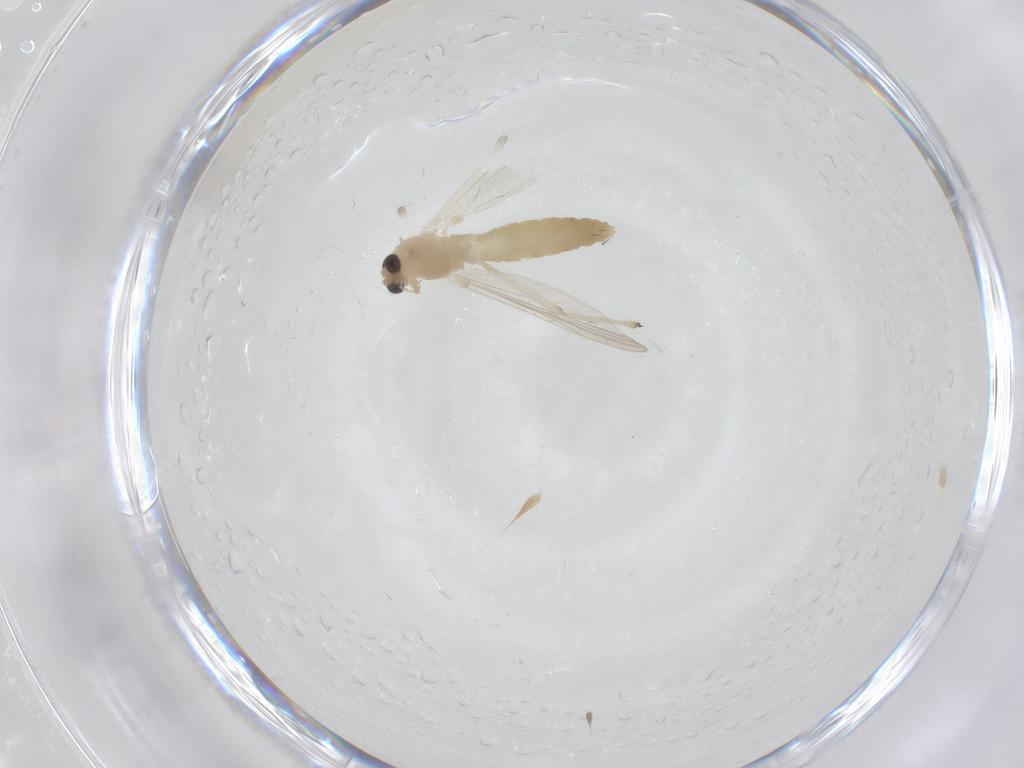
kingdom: Animalia
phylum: Arthropoda
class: Insecta
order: Diptera
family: Chironomidae
